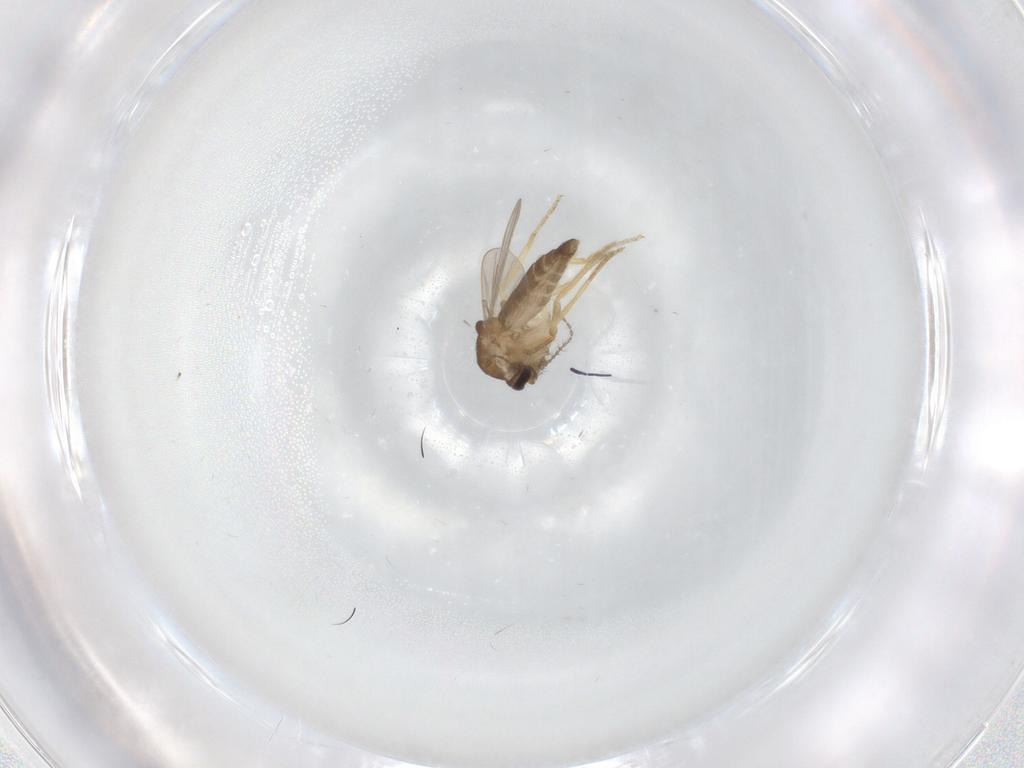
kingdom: Animalia
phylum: Arthropoda
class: Insecta
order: Diptera
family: Ceratopogonidae
